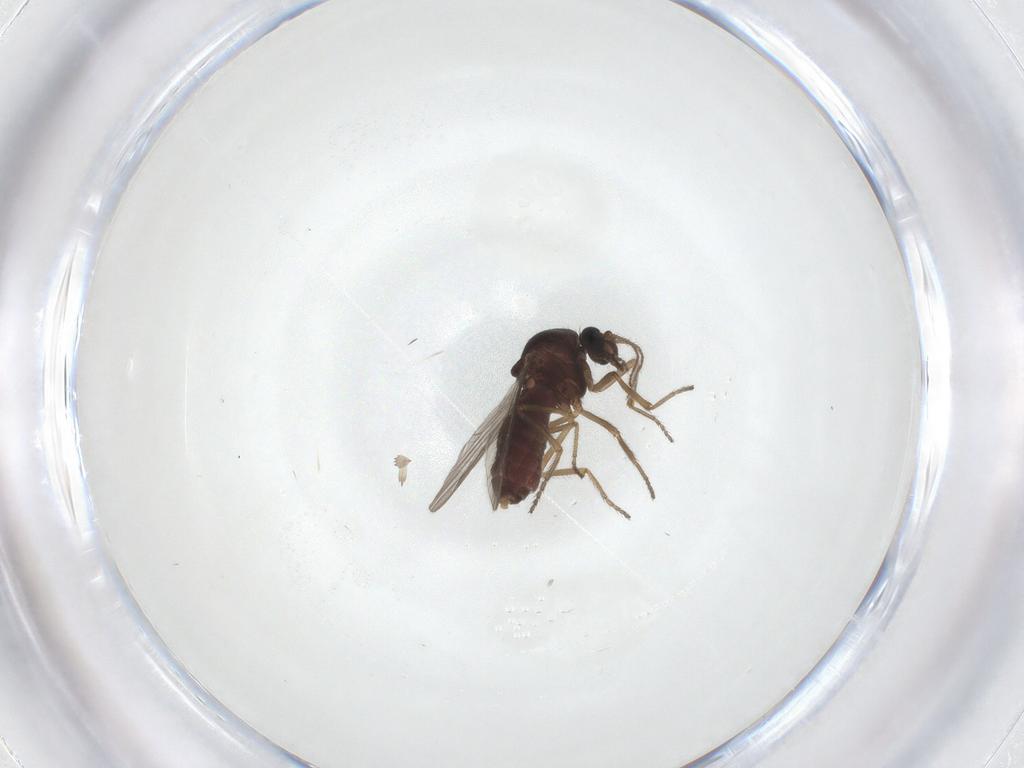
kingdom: Animalia
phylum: Arthropoda
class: Insecta
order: Diptera
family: Ceratopogonidae
